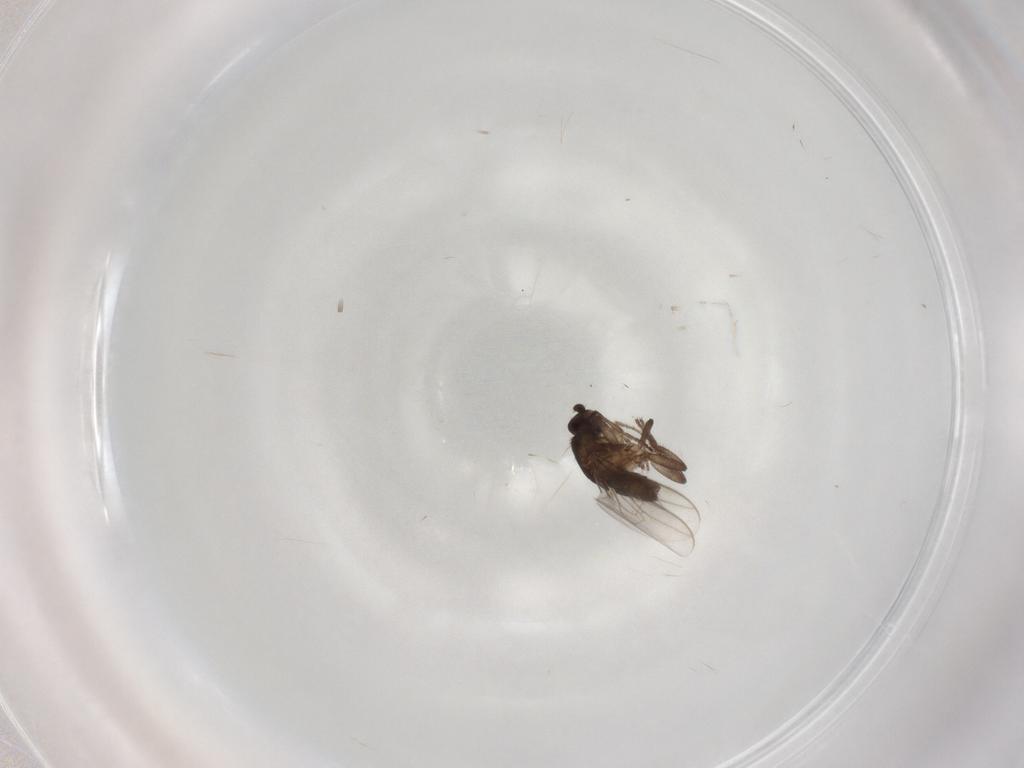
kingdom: Animalia
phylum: Arthropoda
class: Insecta
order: Diptera
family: Sphaeroceridae
